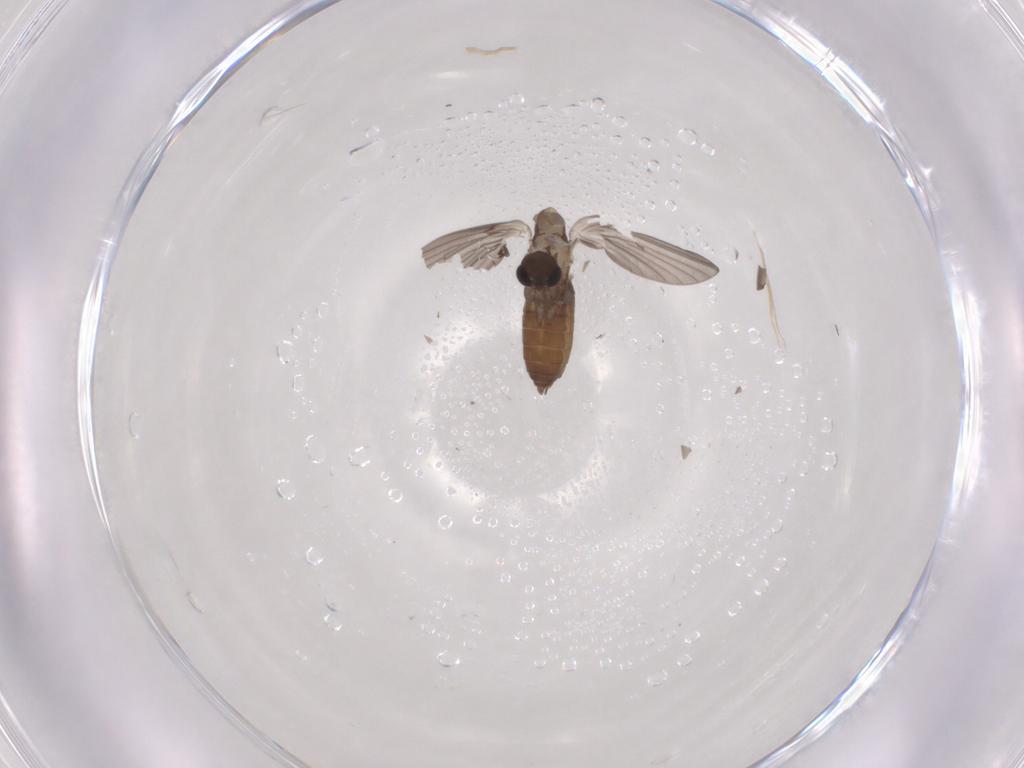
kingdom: Animalia
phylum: Arthropoda
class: Insecta
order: Diptera
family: Psychodidae
